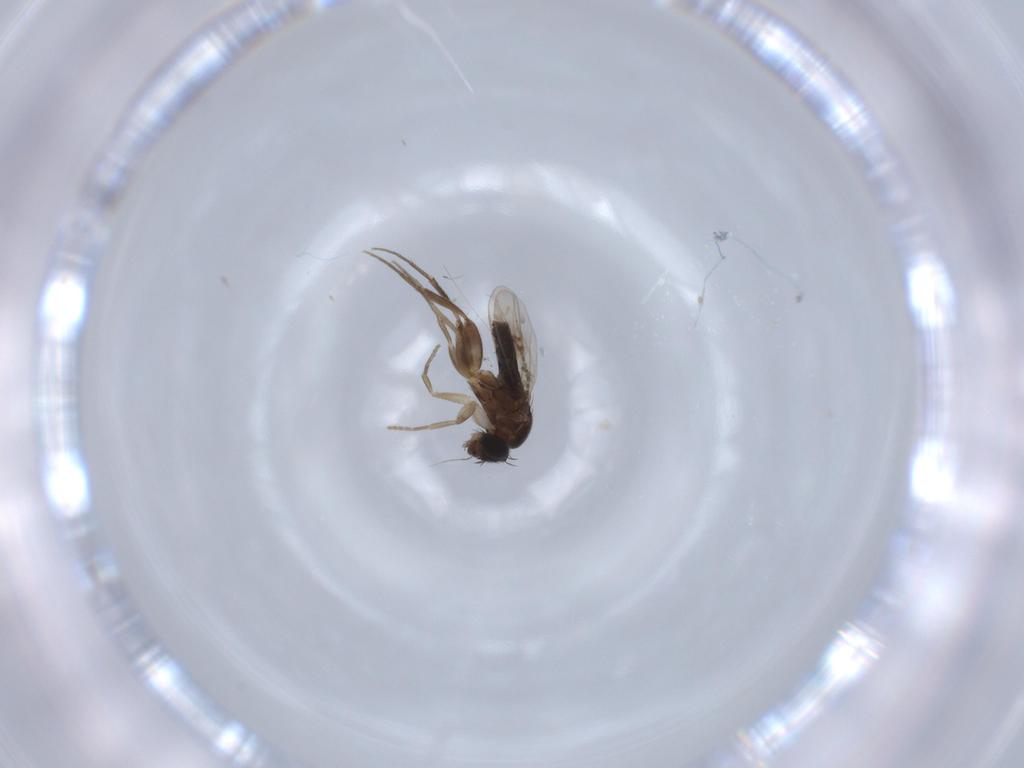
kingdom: Animalia
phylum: Arthropoda
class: Insecta
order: Diptera
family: Phoridae
